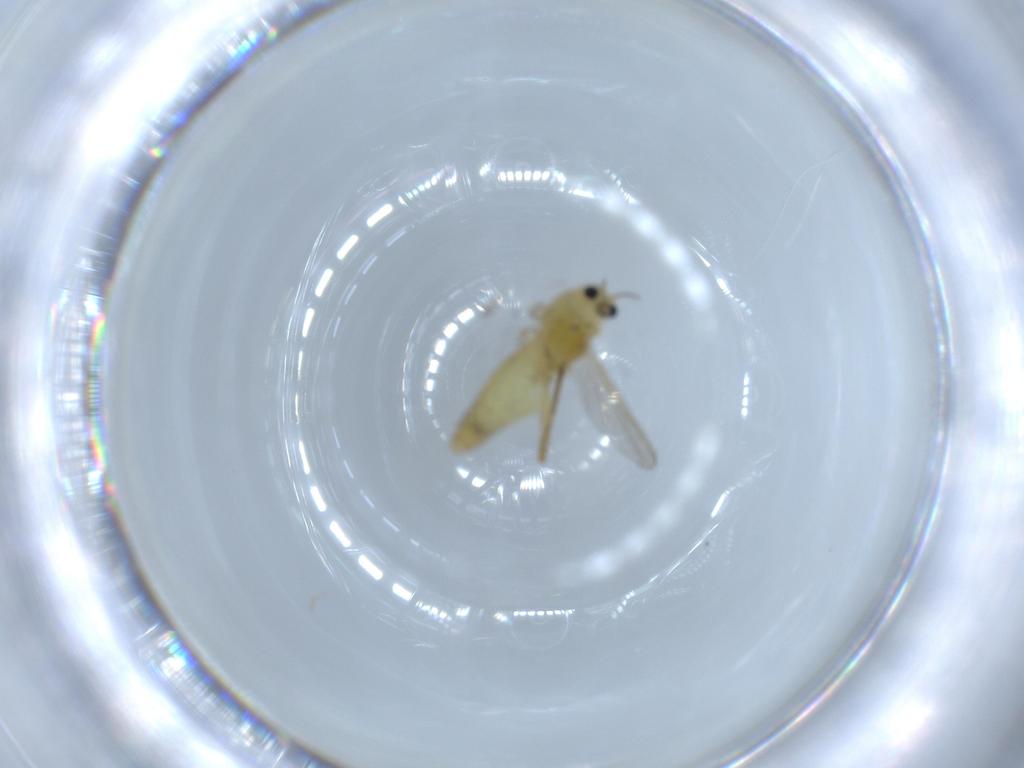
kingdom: Animalia
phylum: Arthropoda
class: Insecta
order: Diptera
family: Chironomidae
